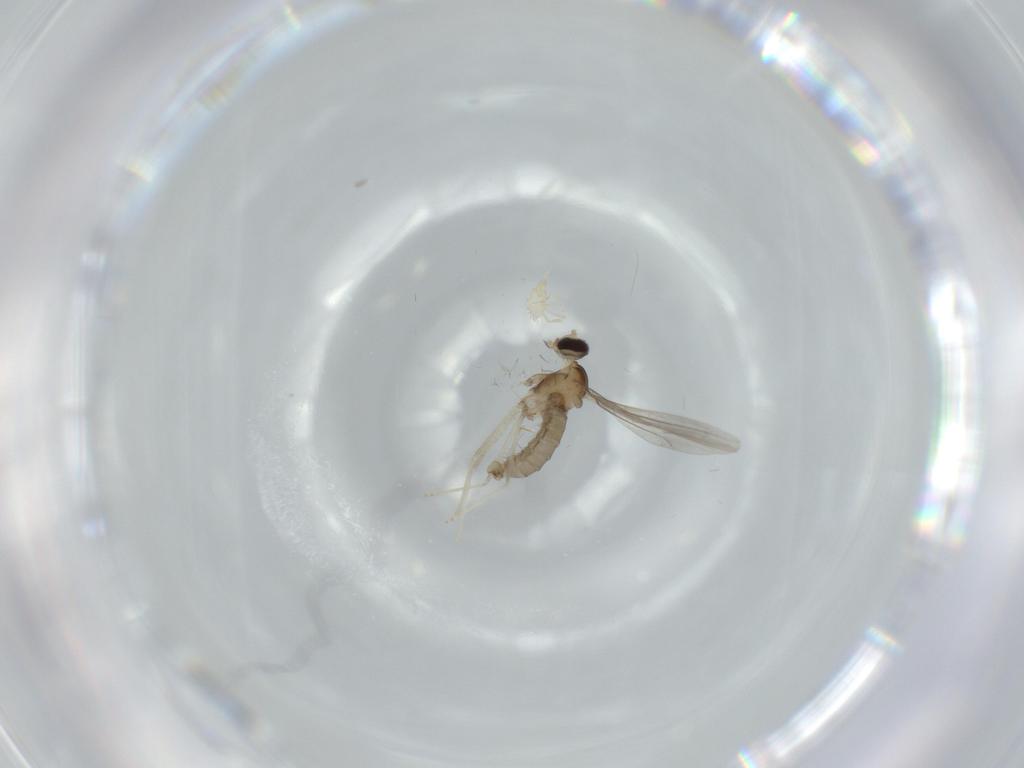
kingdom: Animalia
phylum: Arthropoda
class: Insecta
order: Diptera
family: Cecidomyiidae
